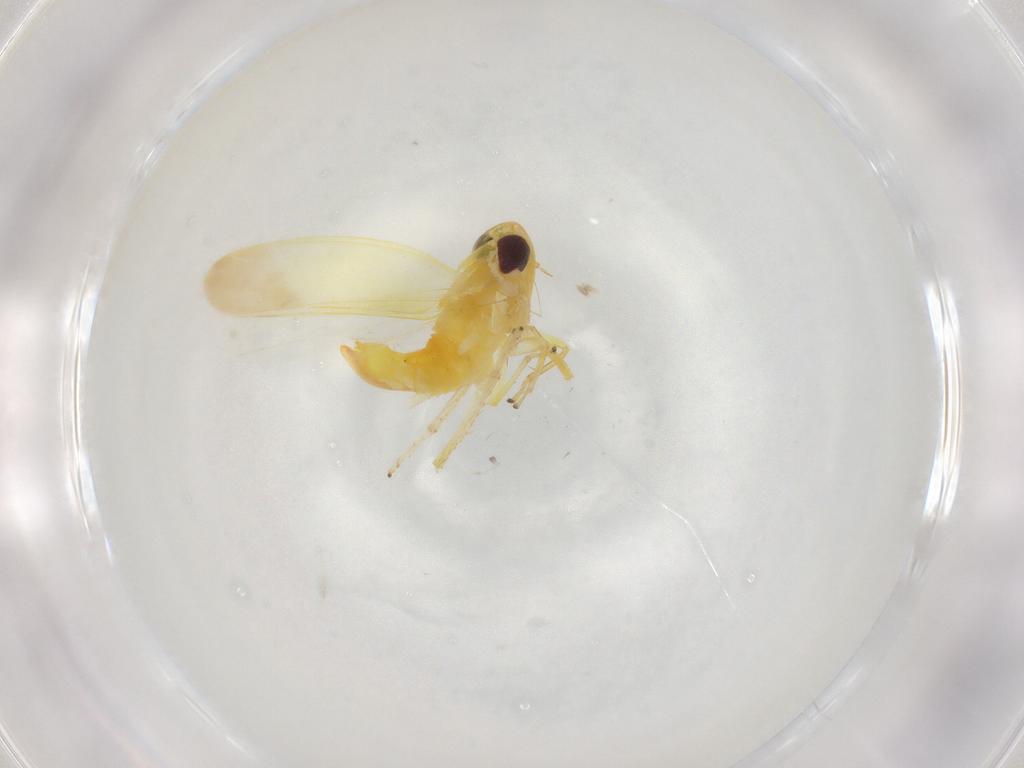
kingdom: Animalia
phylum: Arthropoda
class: Insecta
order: Hemiptera
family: Cicadellidae
